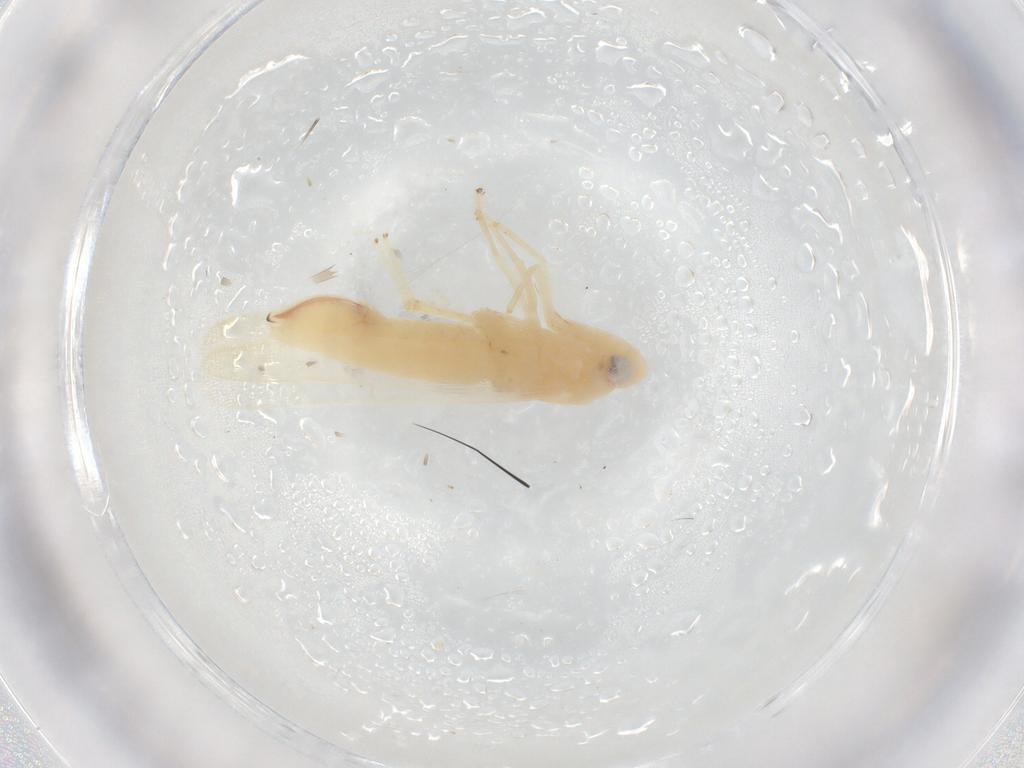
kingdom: Animalia
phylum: Arthropoda
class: Insecta
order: Hemiptera
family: Cicadellidae
